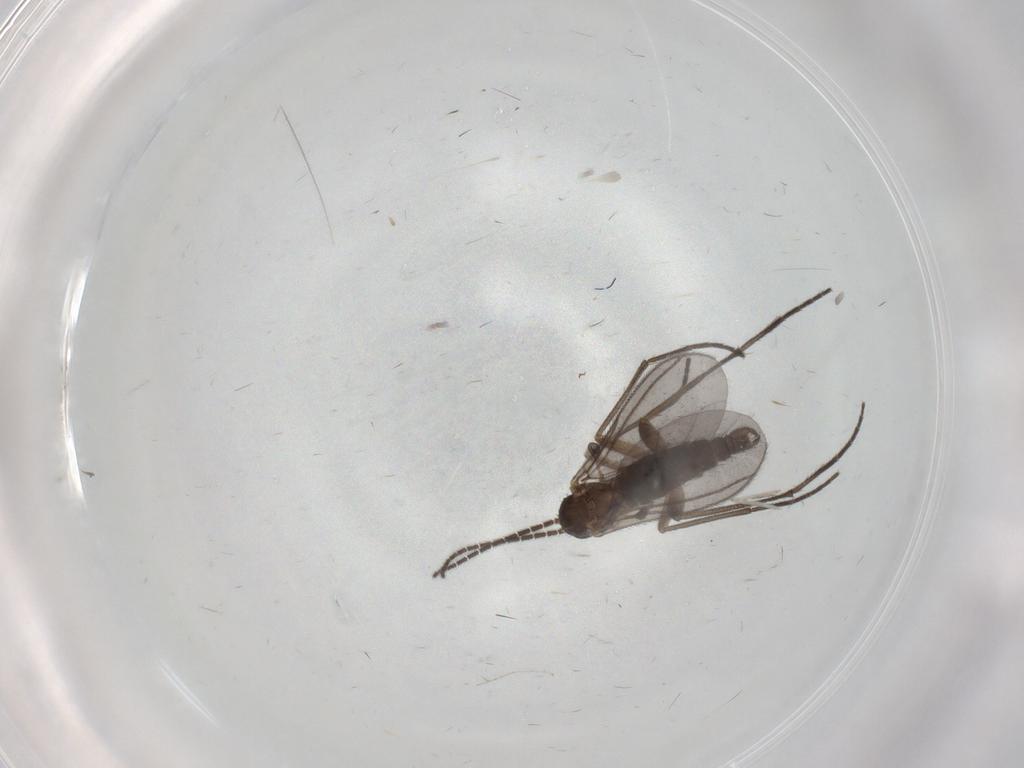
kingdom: Animalia
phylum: Arthropoda
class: Insecta
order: Diptera
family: Sciaridae
